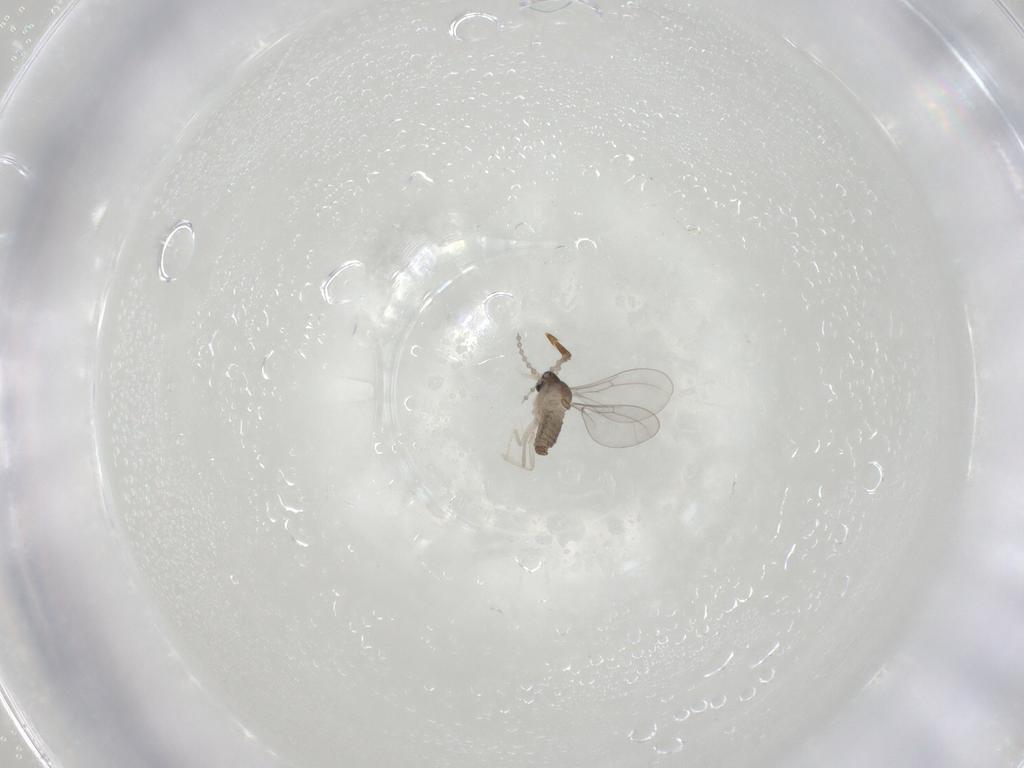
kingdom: Animalia
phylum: Arthropoda
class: Insecta
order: Diptera
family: Cecidomyiidae
